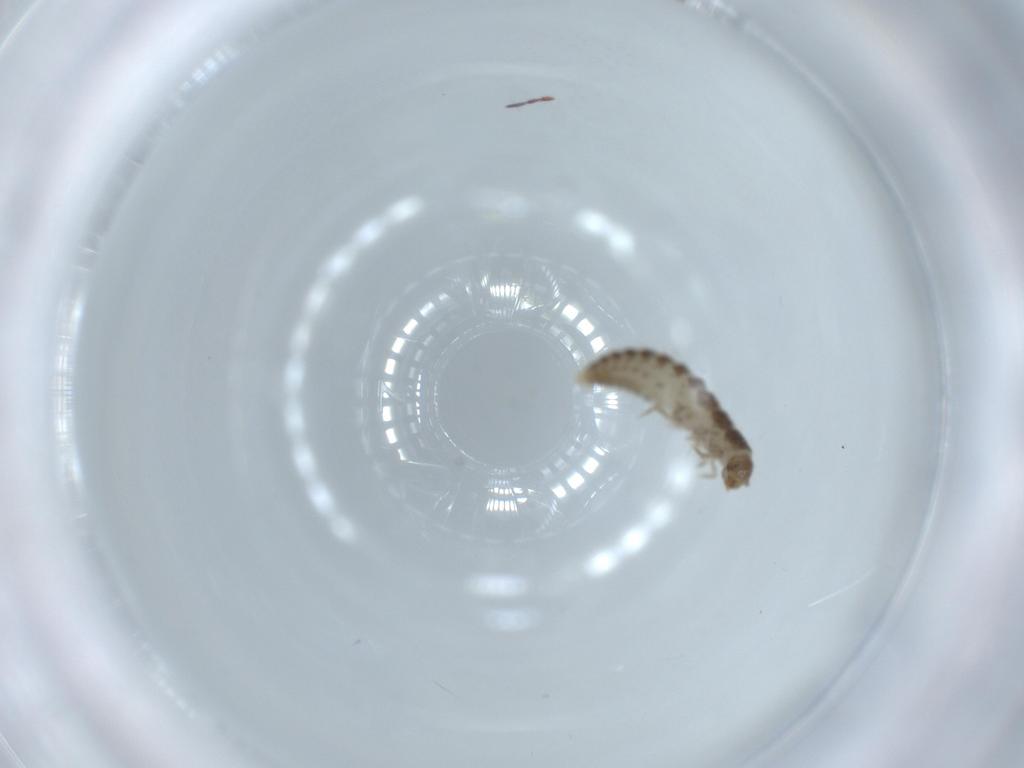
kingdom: Animalia
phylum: Arthropoda
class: Insecta
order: Coleoptera
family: Staphylinidae
